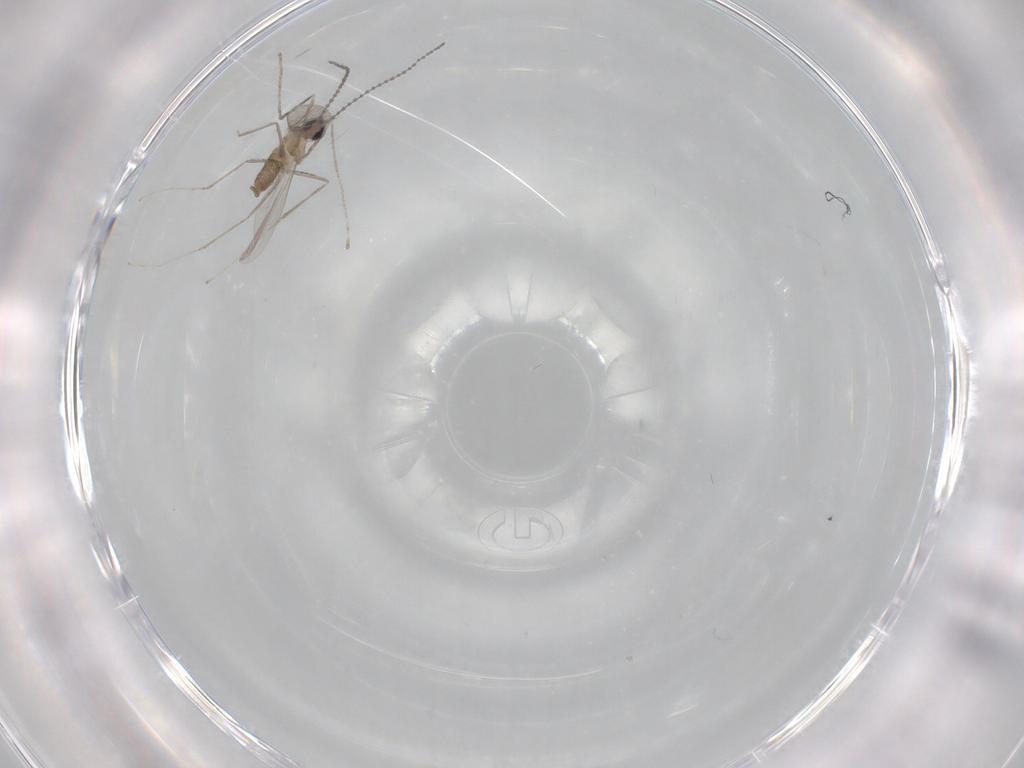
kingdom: Animalia
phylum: Arthropoda
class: Insecta
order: Diptera
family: Cecidomyiidae
